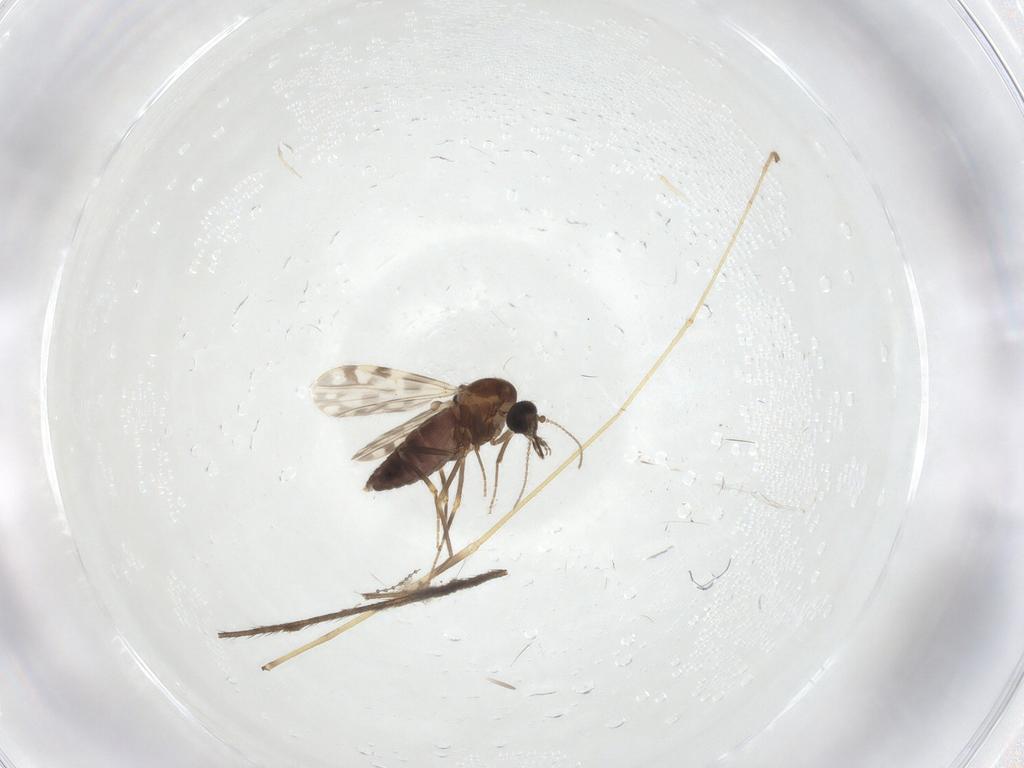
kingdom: Animalia
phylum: Arthropoda
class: Insecta
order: Diptera
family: Limoniidae
